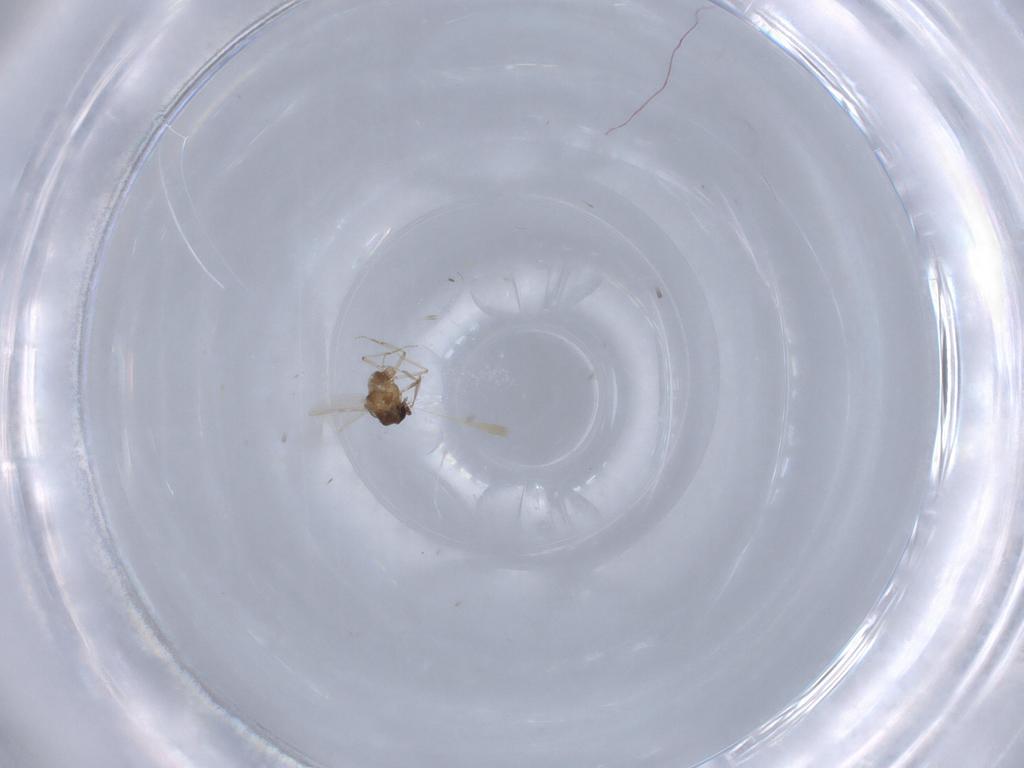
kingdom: Animalia
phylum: Arthropoda
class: Insecta
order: Diptera
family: Ceratopogonidae
